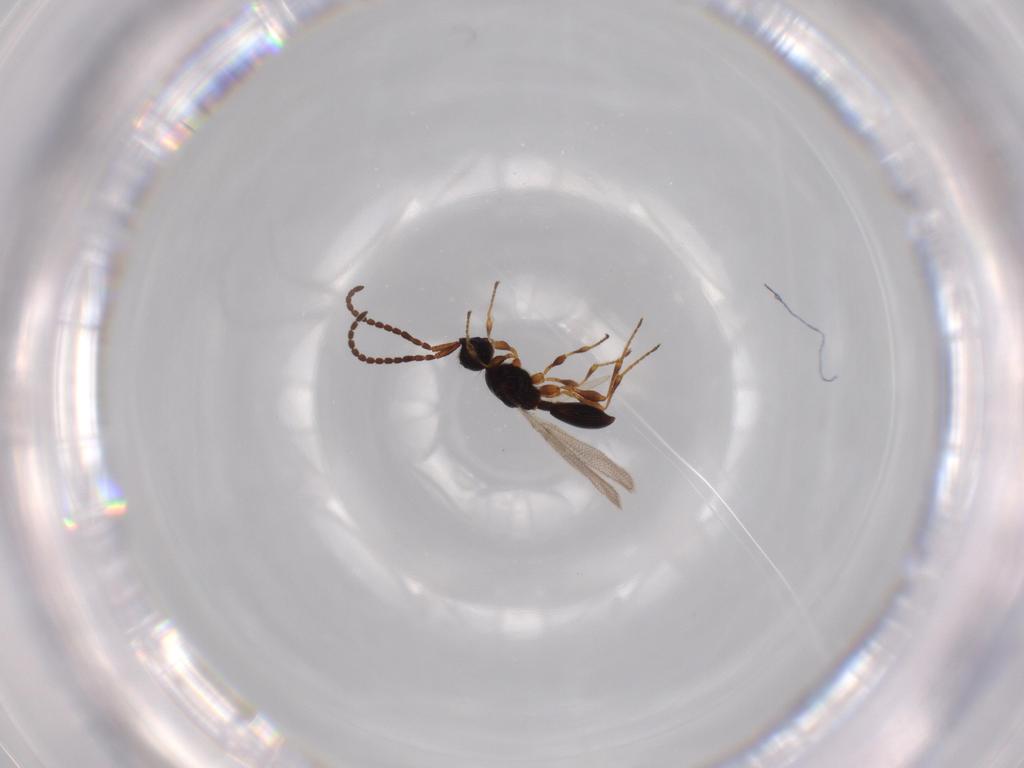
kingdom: Animalia
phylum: Arthropoda
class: Insecta
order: Hymenoptera
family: Diapriidae
